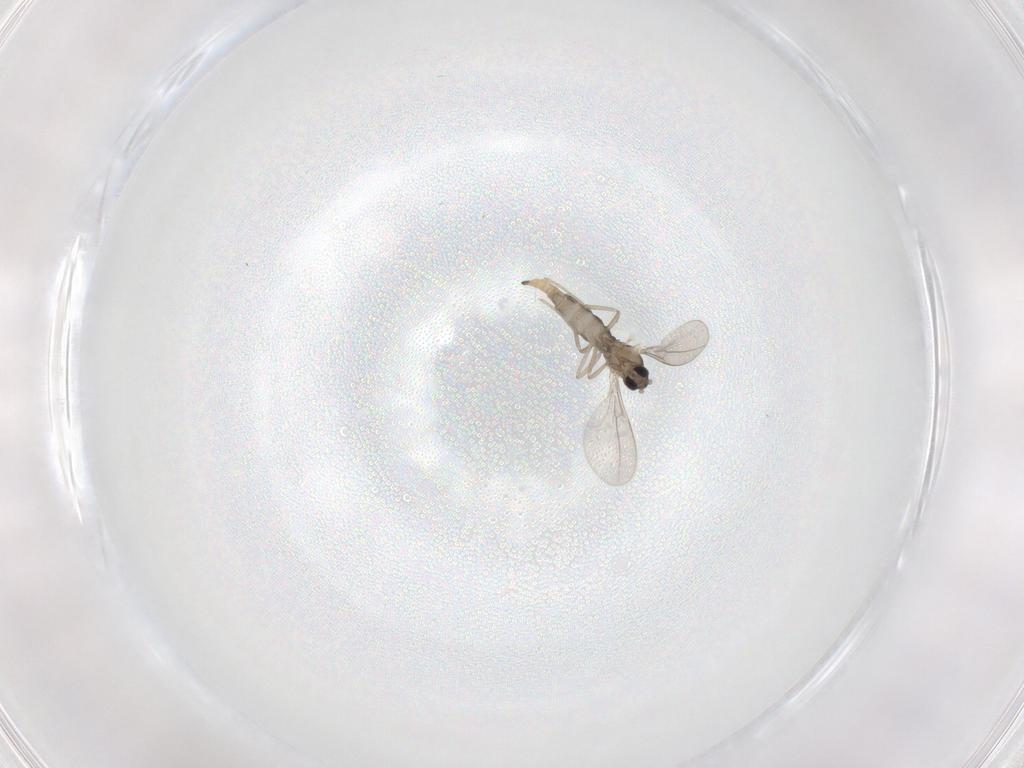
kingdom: Animalia
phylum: Arthropoda
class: Insecta
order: Diptera
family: Cecidomyiidae
